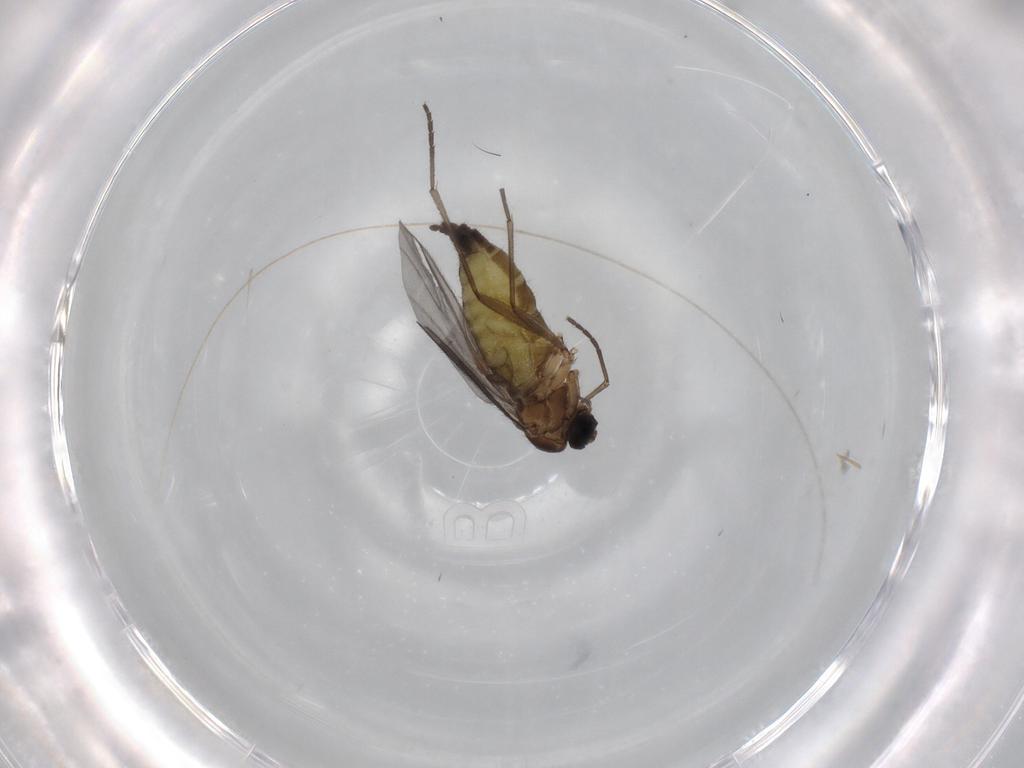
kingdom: Animalia
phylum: Arthropoda
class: Insecta
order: Diptera
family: Sciaridae
